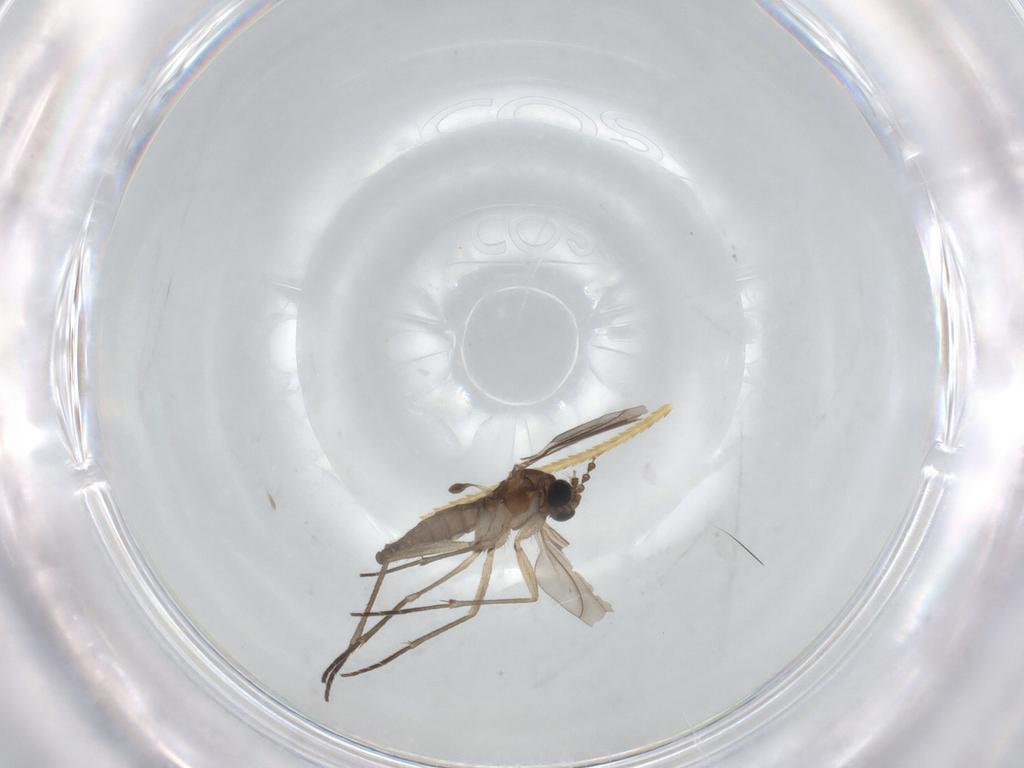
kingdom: Animalia
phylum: Arthropoda
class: Insecta
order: Diptera
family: Sciaridae
